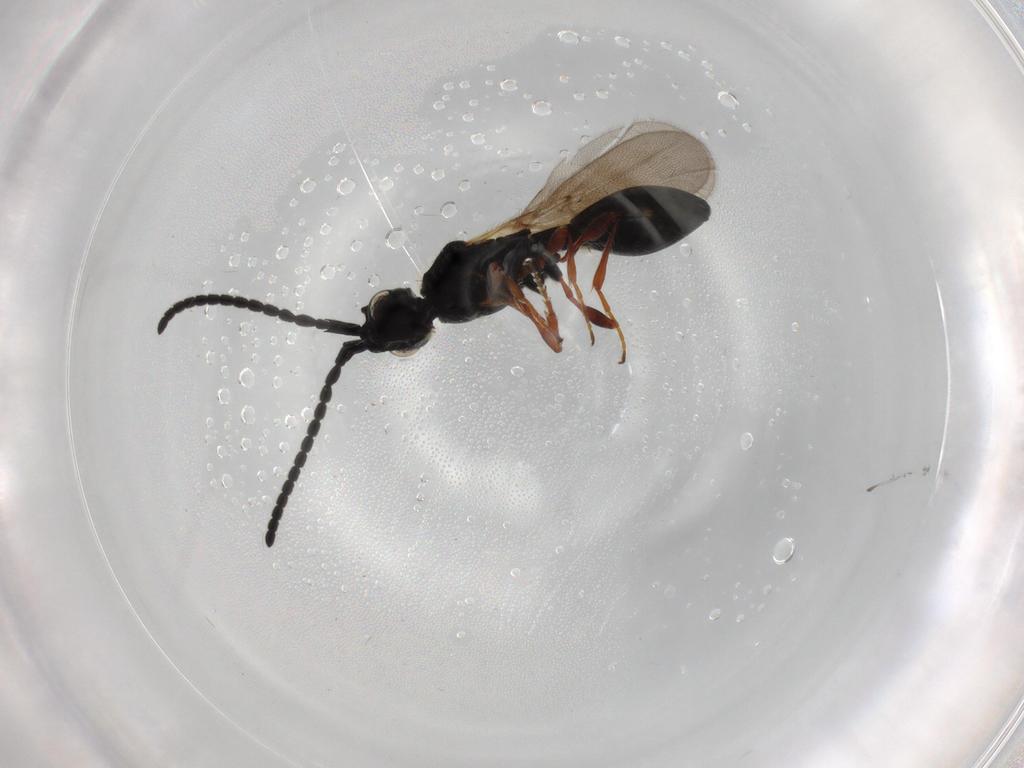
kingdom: Animalia
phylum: Arthropoda
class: Insecta
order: Hymenoptera
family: Diapriidae
